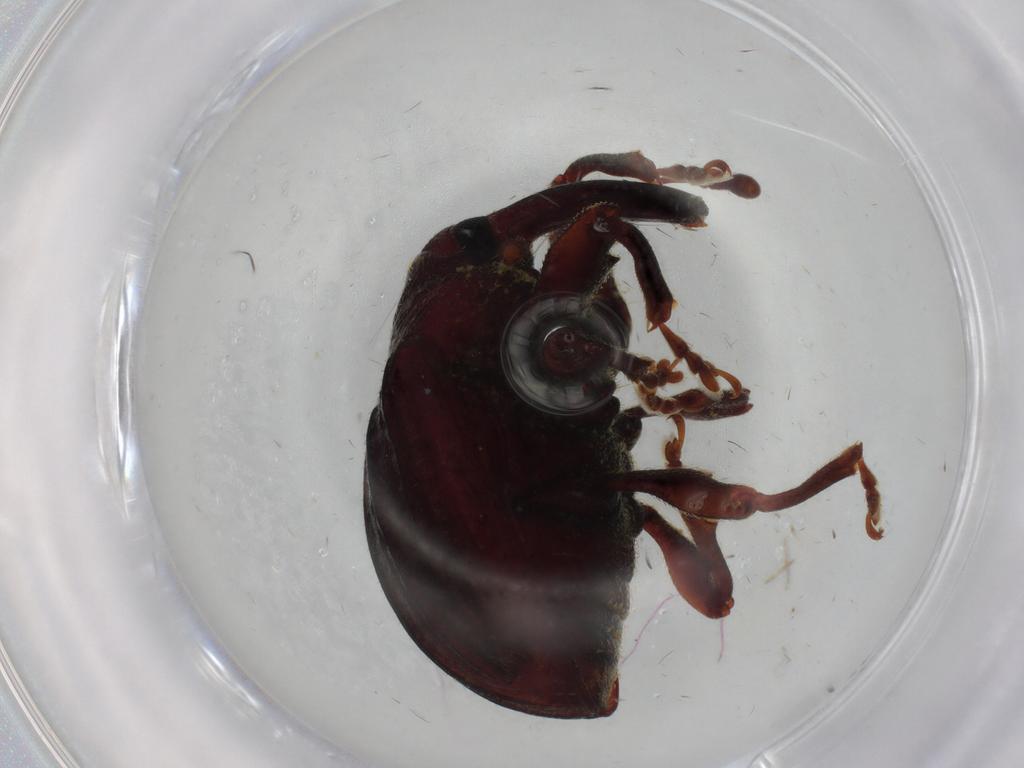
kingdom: Animalia
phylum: Arthropoda
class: Insecta
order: Coleoptera
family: Curculionidae
